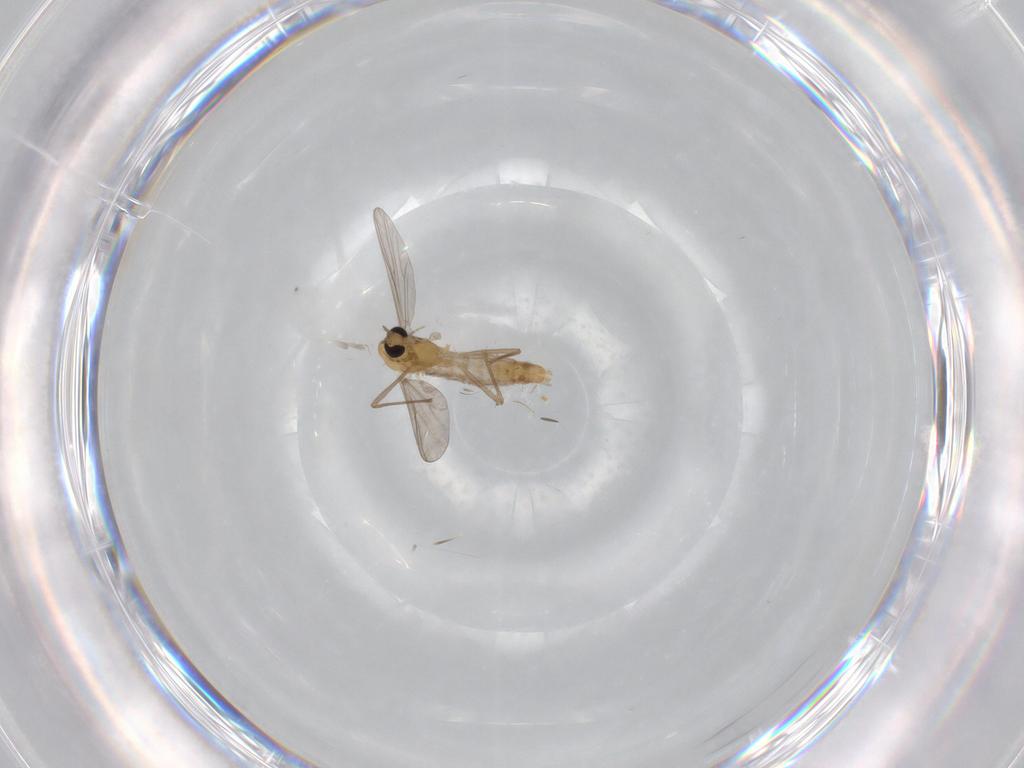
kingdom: Animalia
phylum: Arthropoda
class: Insecta
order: Diptera
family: Chironomidae
